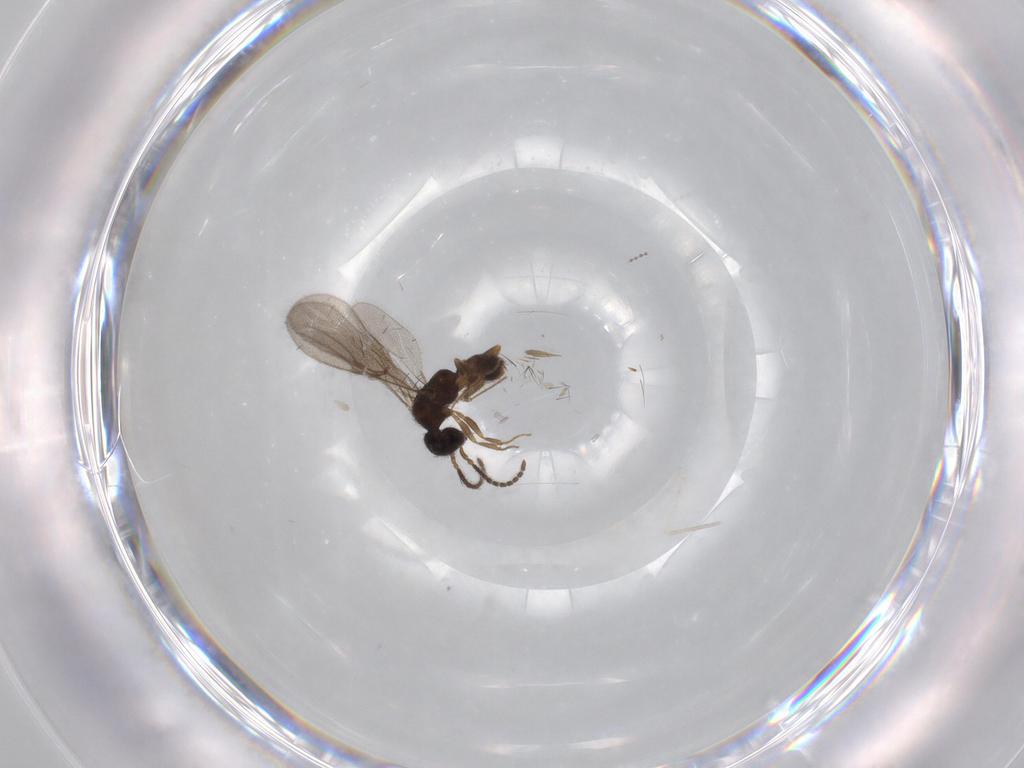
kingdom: Animalia
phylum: Arthropoda
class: Insecta
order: Hymenoptera
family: Bethylidae
